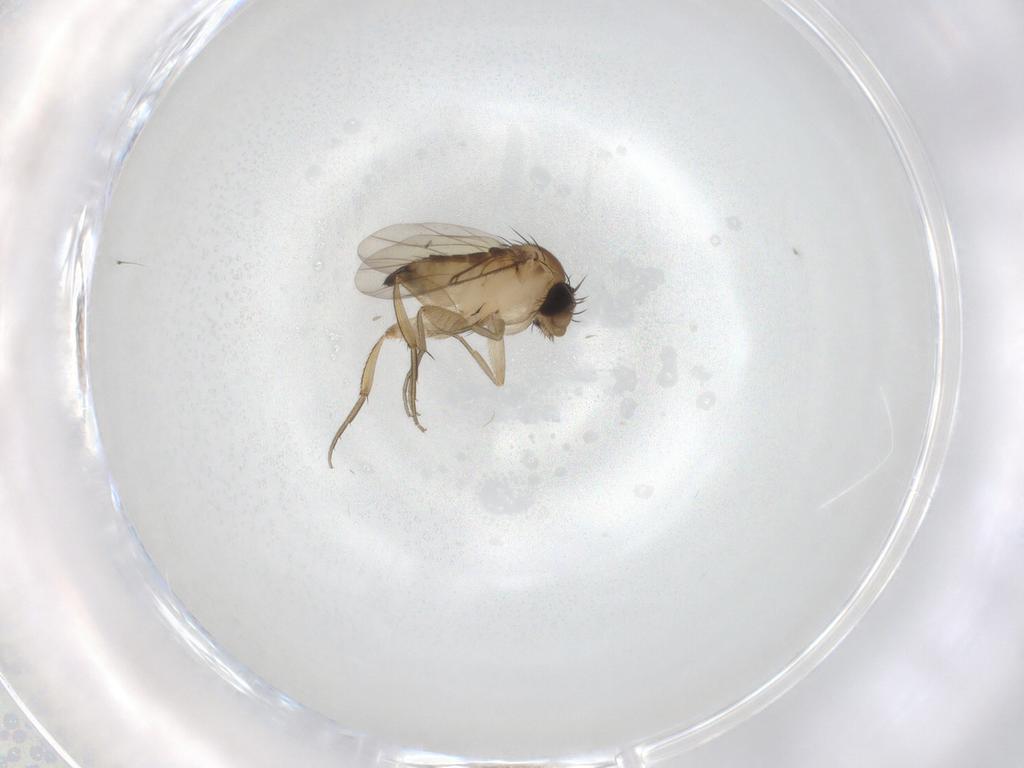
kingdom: Animalia
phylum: Arthropoda
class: Insecta
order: Diptera
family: Phoridae
